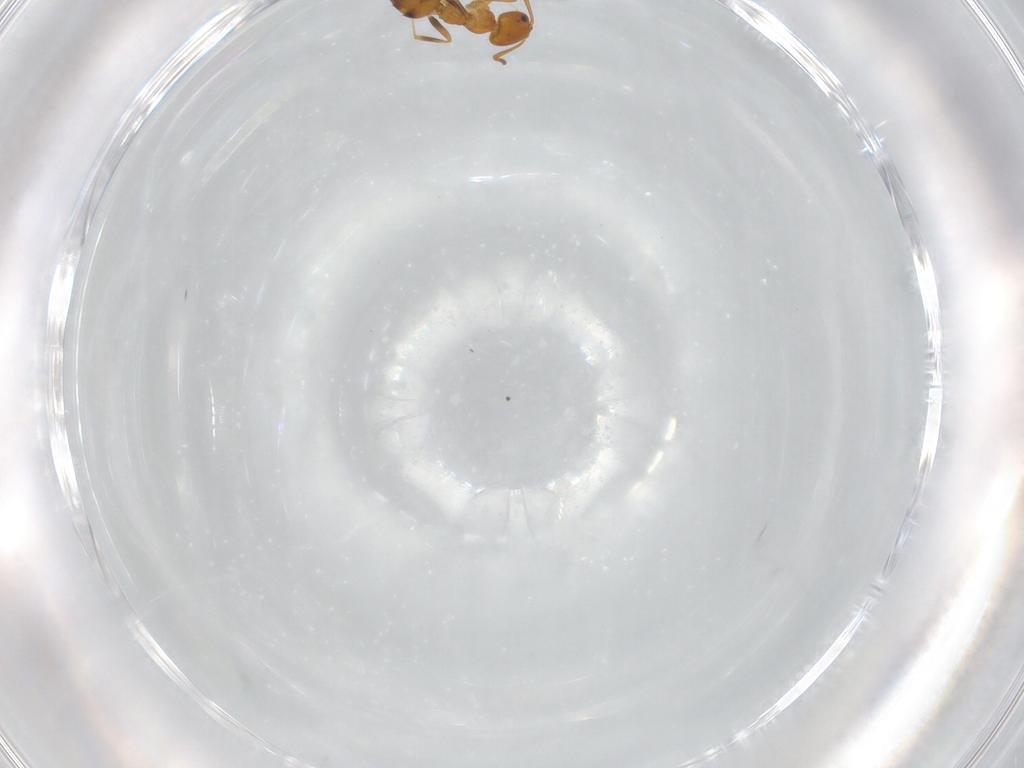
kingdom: Animalia
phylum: Arthropoda
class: Insecta
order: Hymenoptera
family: Formicidae
